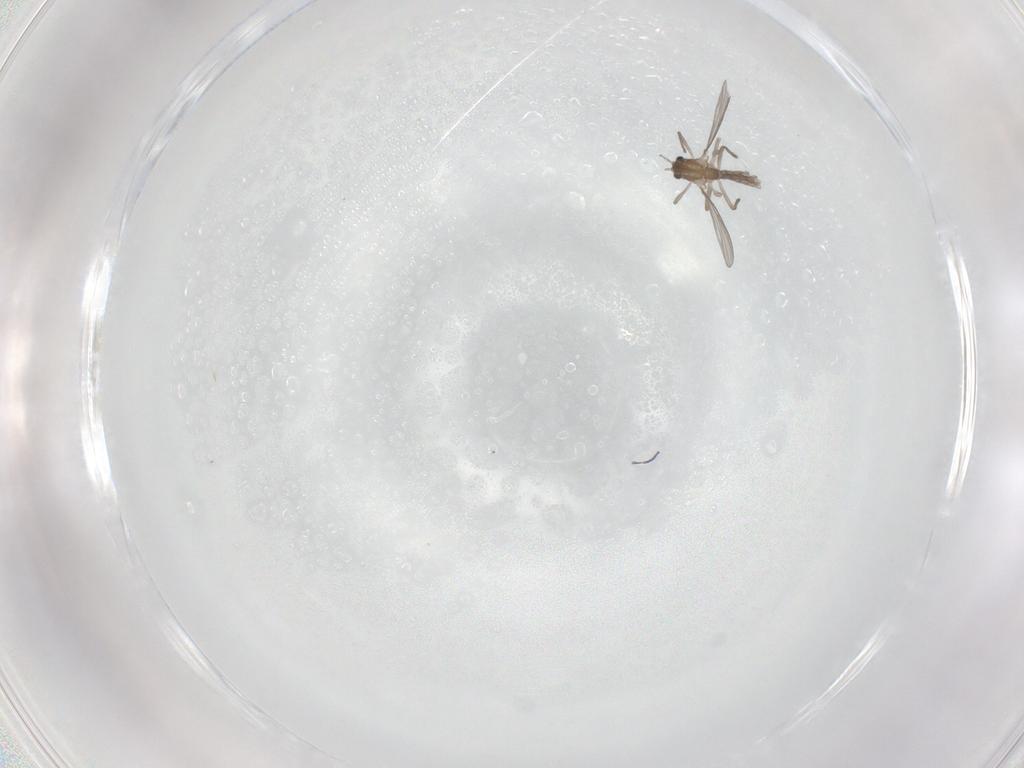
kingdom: Animalia
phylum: Arthropoda
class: Insecta
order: Diptera
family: Chironomidae
